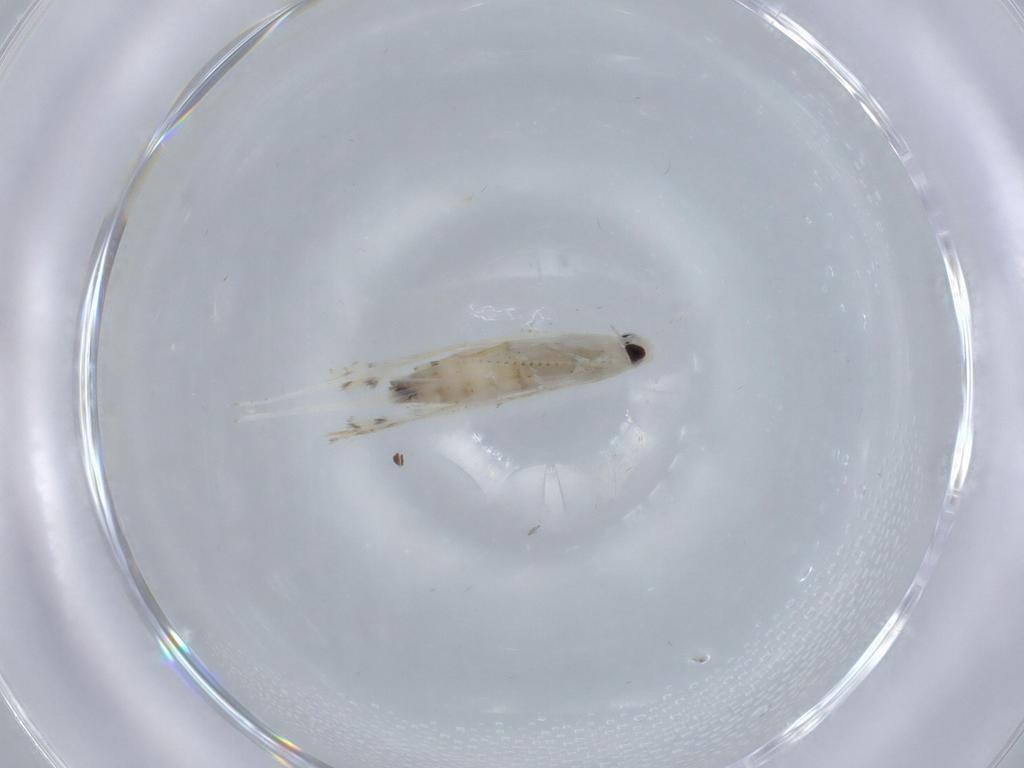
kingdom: Animalia
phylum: Arthropoda
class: Insecta
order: Lepidoptera
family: Gracillariidae
